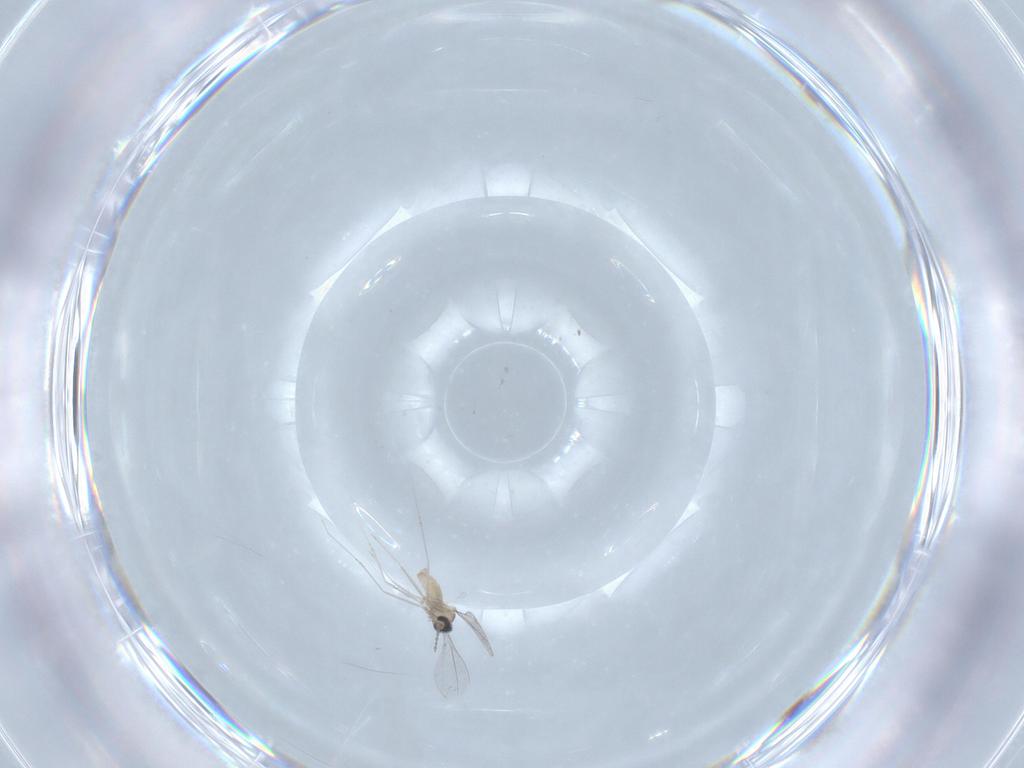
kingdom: Animalia
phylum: Arthropoda
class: Insecta
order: Diptera
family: Cecidomyiidae
